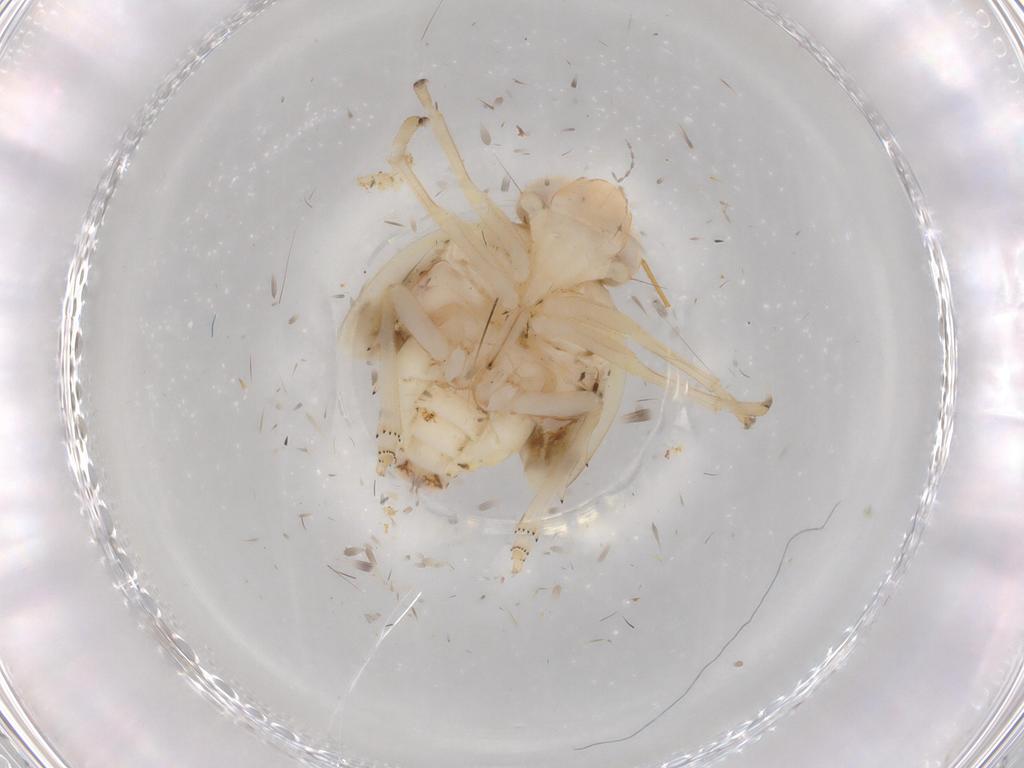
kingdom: Animalia
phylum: Arthropoda
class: Insecta
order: Hemiptera
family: Nogodinidae
